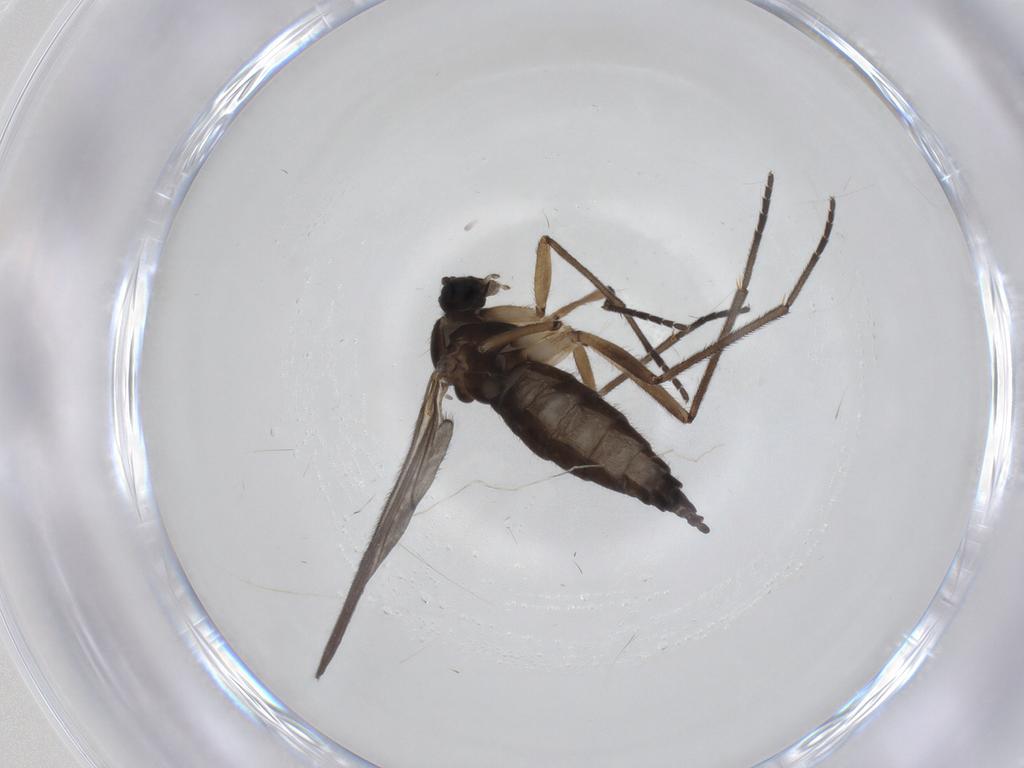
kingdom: Animalia
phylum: Arthropoda
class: Insecta
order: Diptera
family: Sciaridae
